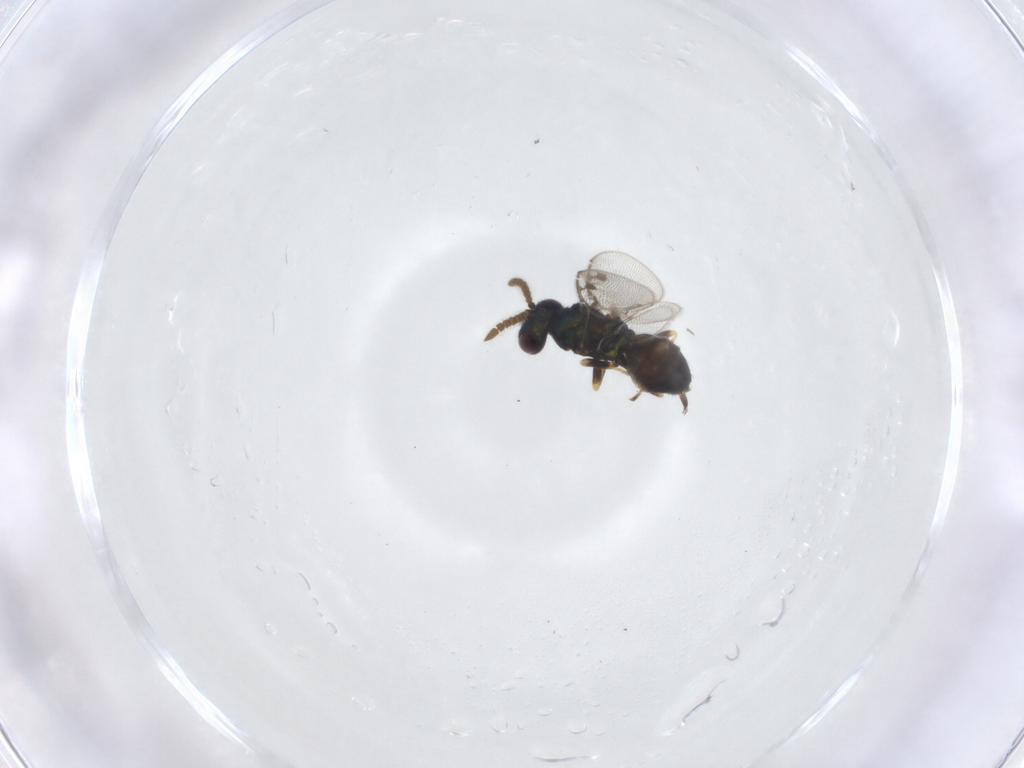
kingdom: Animalia
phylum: Arthropoda
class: Insecta
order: Hymenoptera
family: Pirenidae
